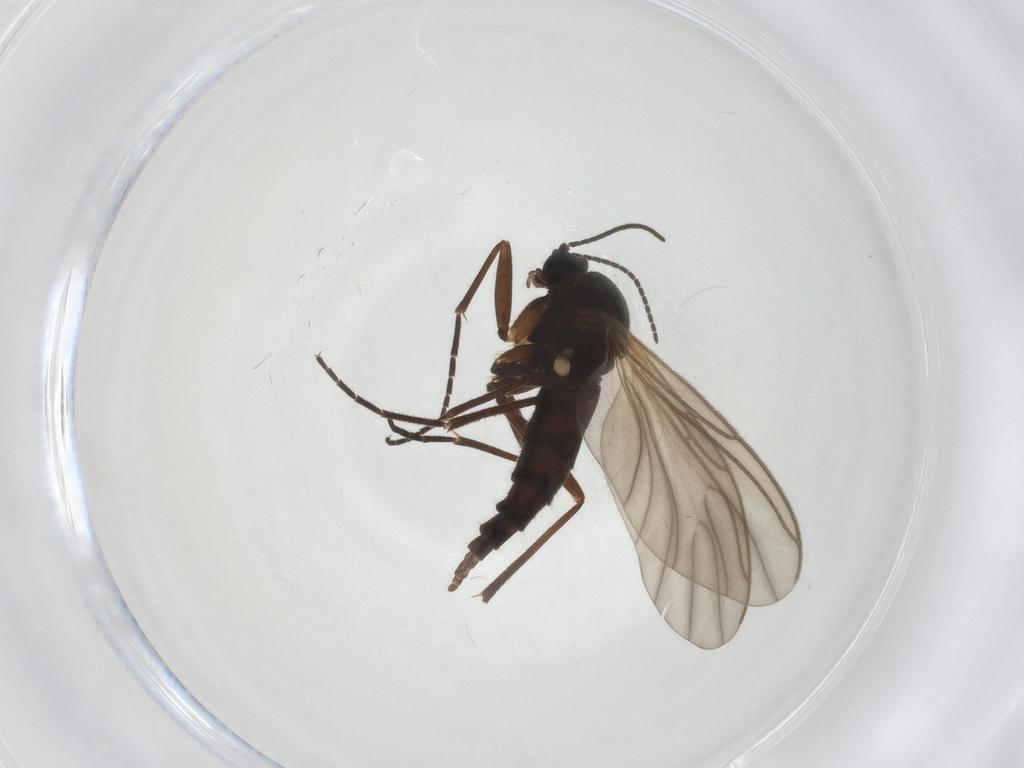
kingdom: Animalia
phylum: Arthropoda
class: Insecta
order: Diptera
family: Sciaridae
